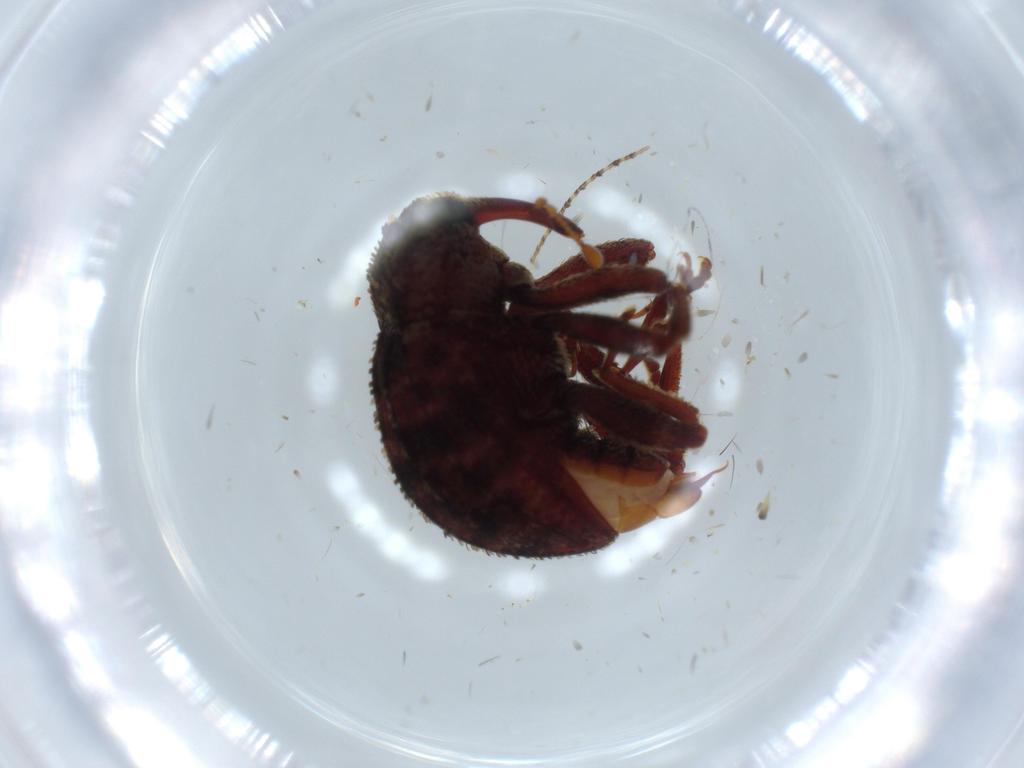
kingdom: Animalia
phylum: Arthropoda
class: Insecta
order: Coleoptera
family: Curculionidae
